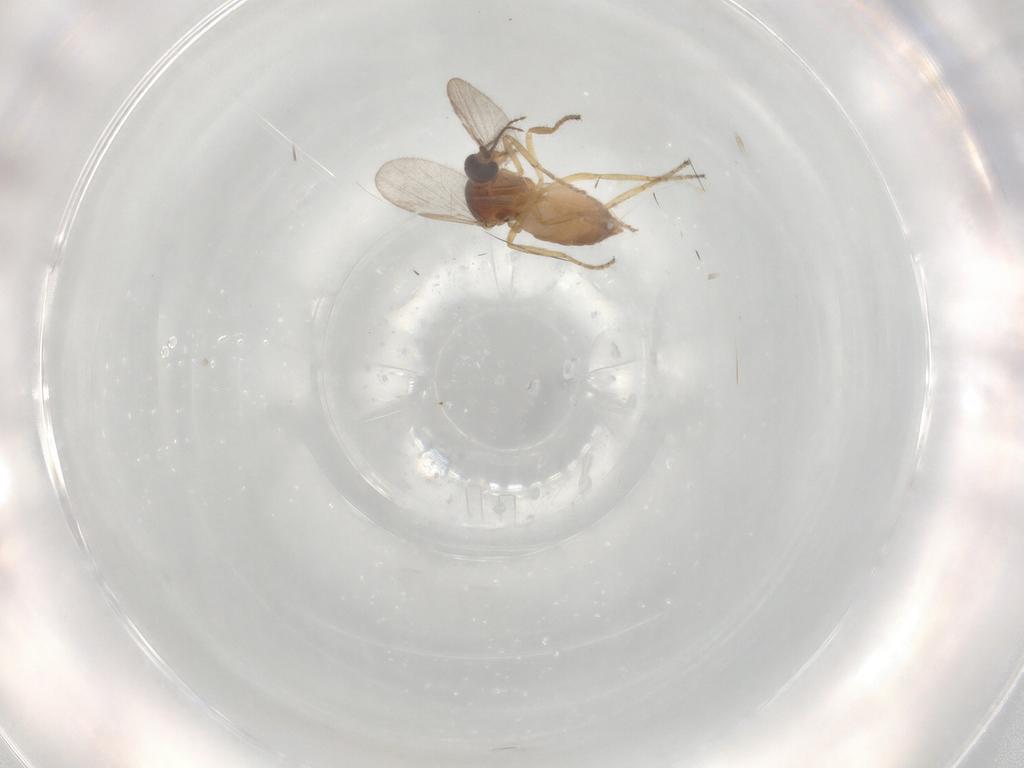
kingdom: Animalia
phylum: Arthropoda
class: Insecta
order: Diptera
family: Ceratopogonidae
